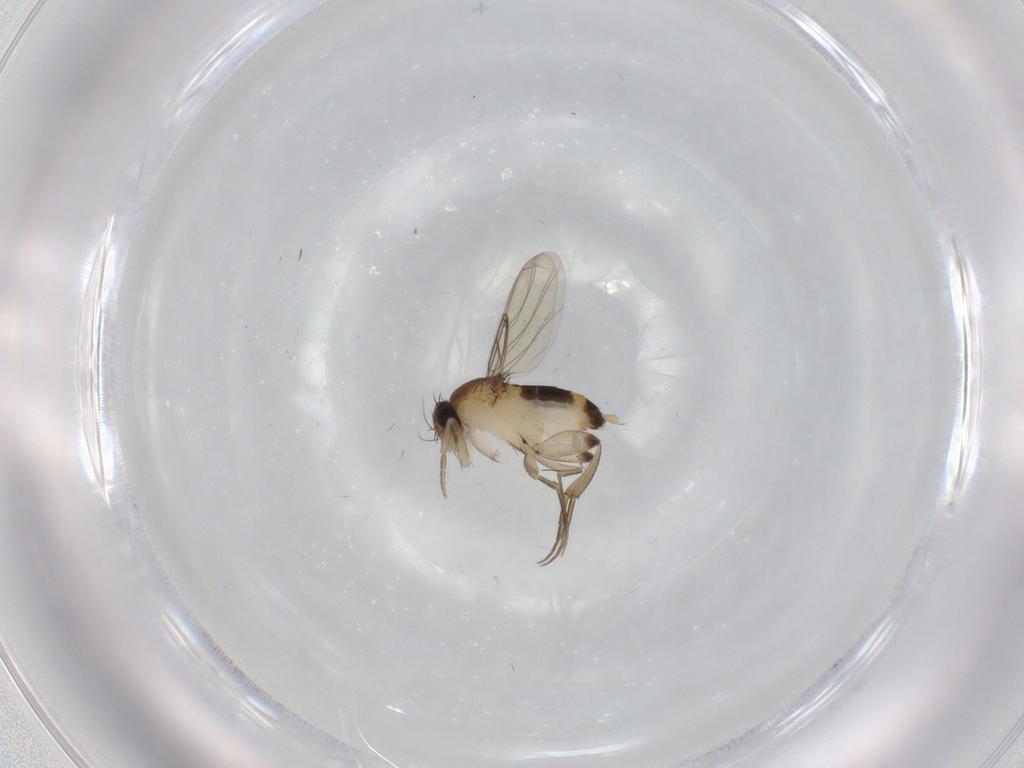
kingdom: Animalia
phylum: Arthropoda
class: Insecta
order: Diptera
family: Phoridae
